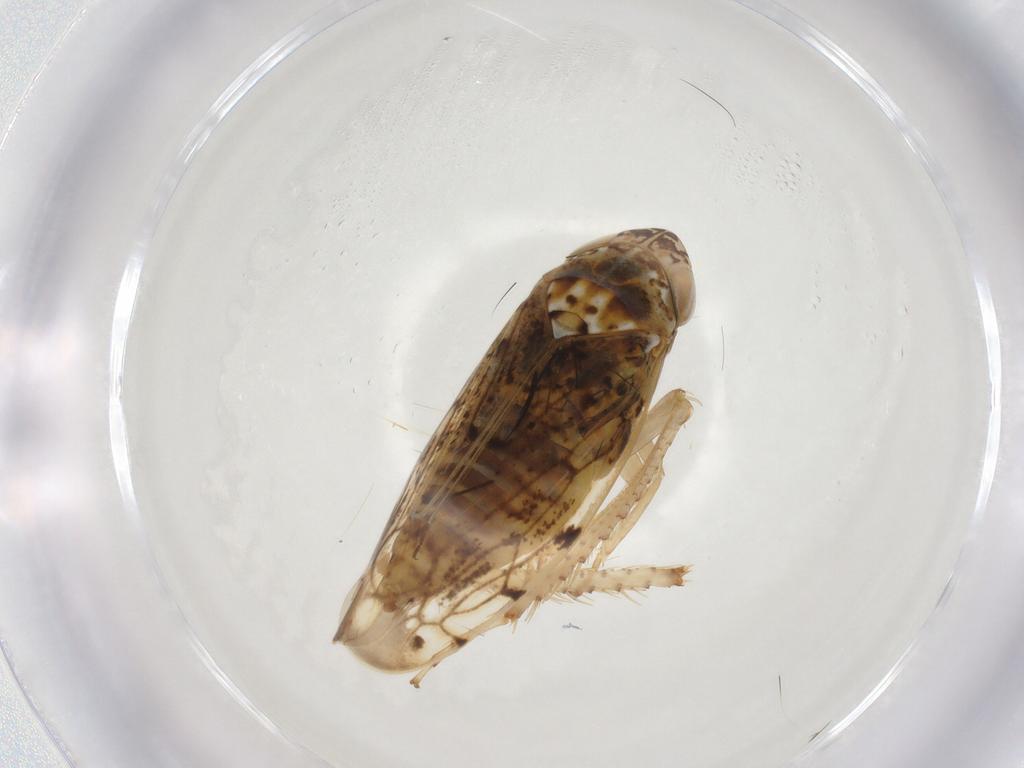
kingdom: Animalia
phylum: Arthropoda
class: Insecta
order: Hemiptera
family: Cicadellidae
